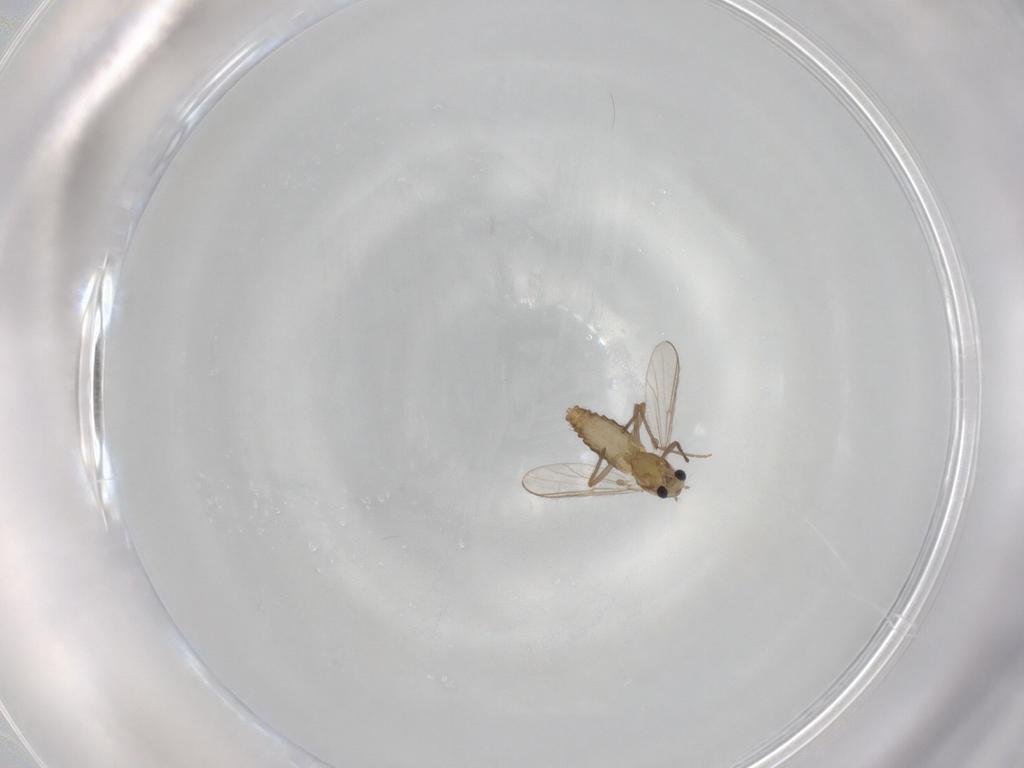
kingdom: Animalia
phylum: Arthropoda
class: Insecta
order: Diptera
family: Chironomidae
